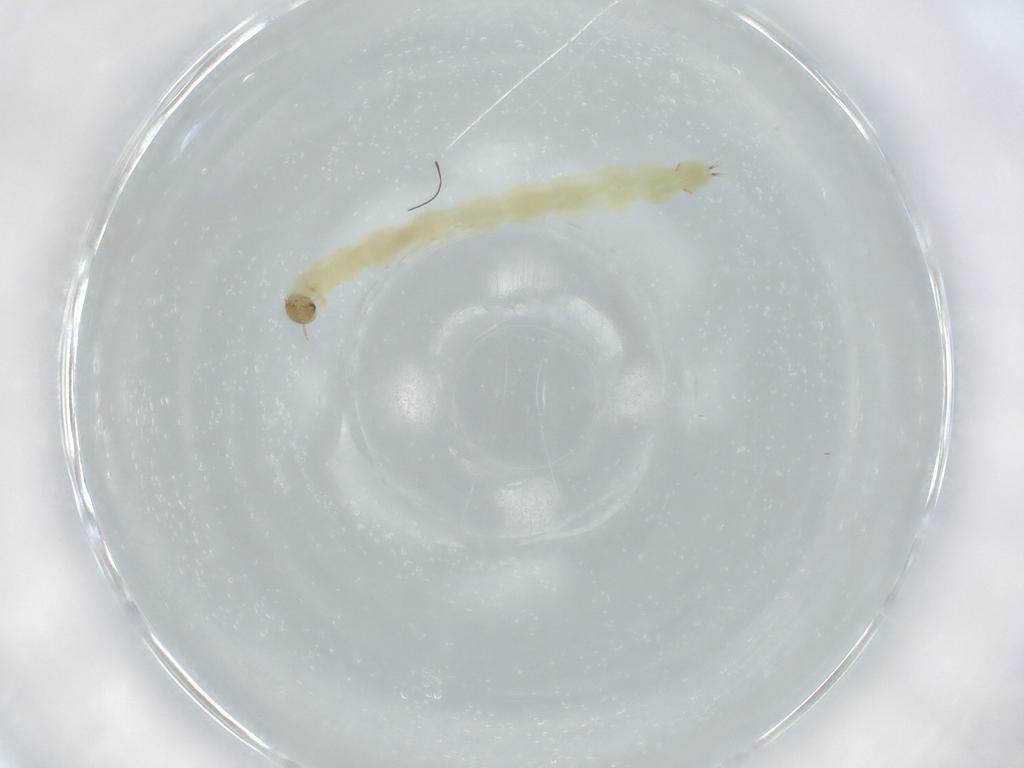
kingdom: Animalia
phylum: Arthropoda
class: Insecta
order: Diptera
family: Chironomidae
